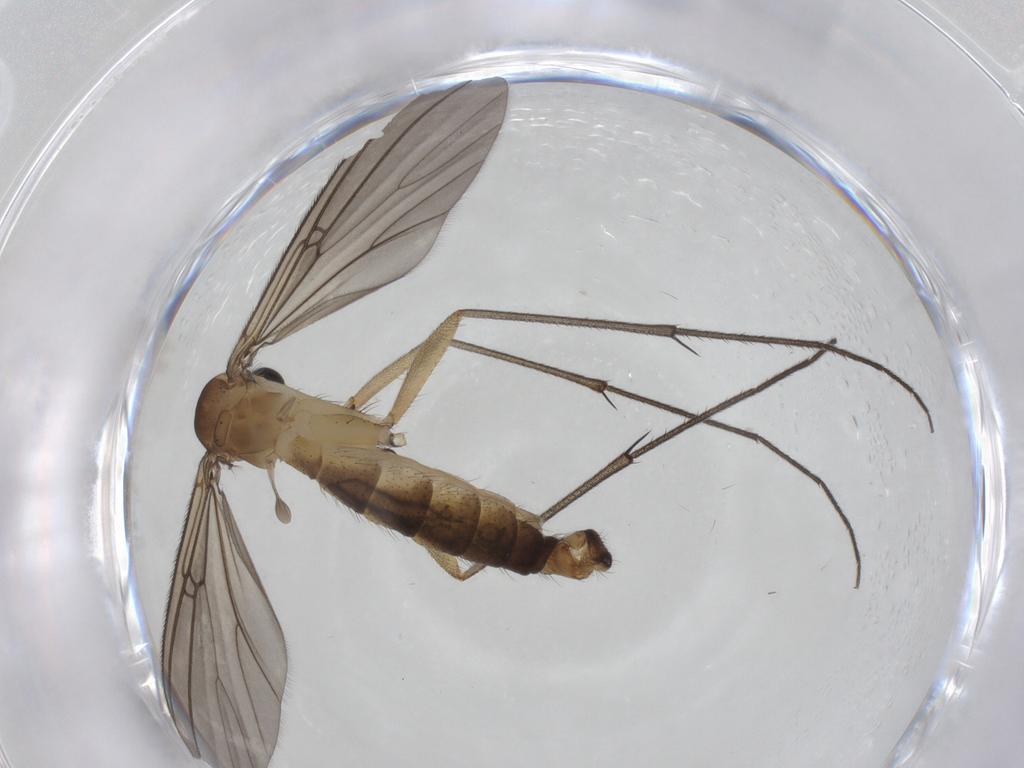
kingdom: Animalia
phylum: Arthropoda
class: Insecta
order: Diptera
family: Mycetophilidae
